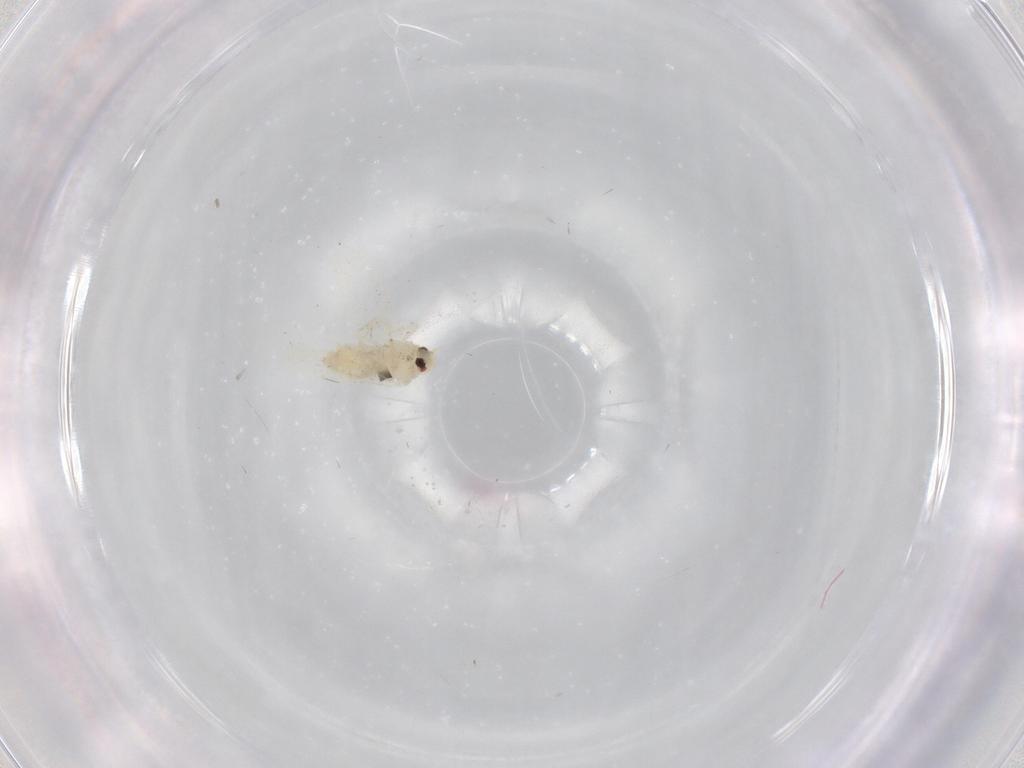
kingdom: Animalia
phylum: Arthropoda
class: Insecta
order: Hemiptera
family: Aleyrodidae
